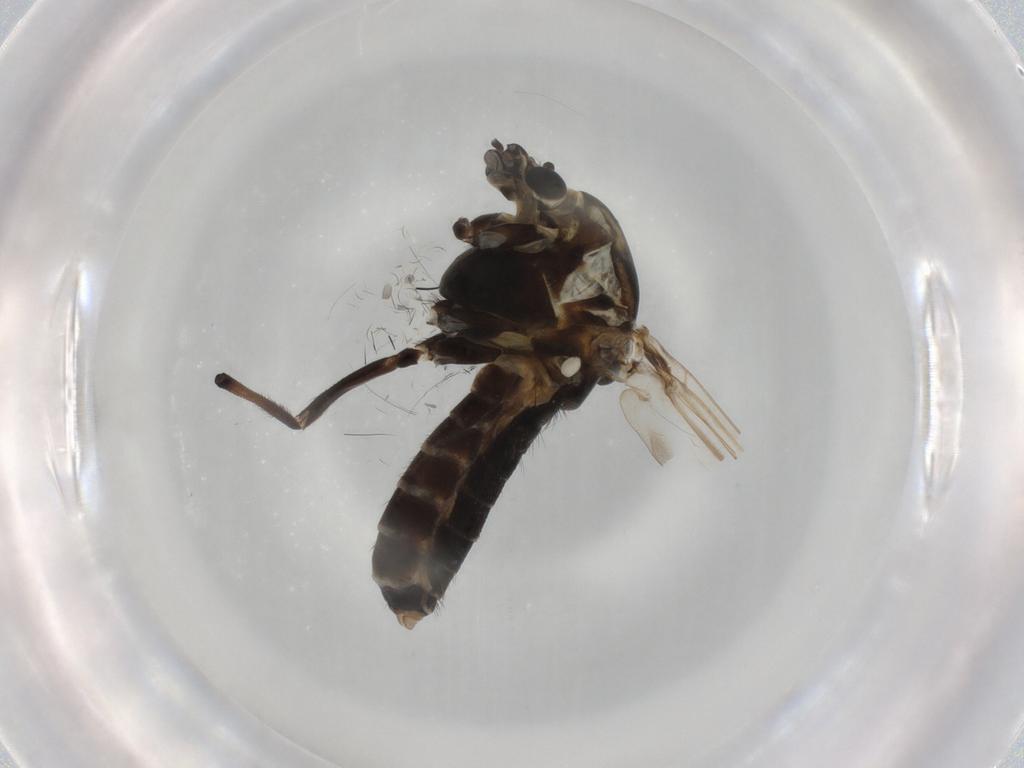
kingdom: Animalia
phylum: Arthropoda
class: Insecta
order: Diptera
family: Chironomidae
